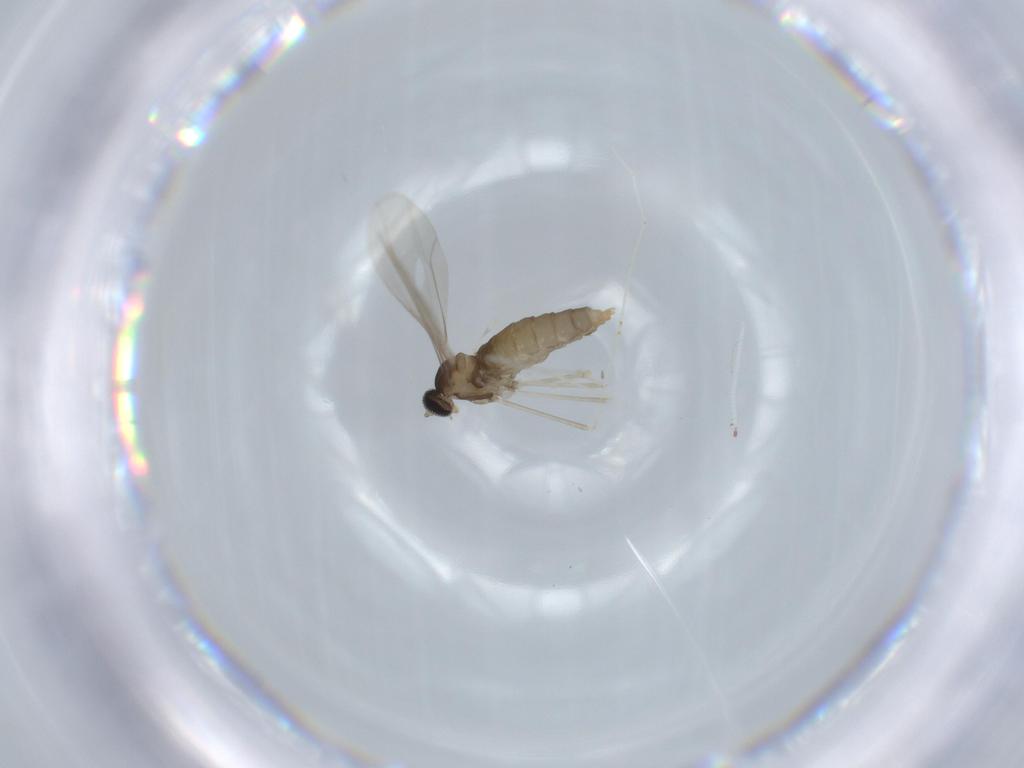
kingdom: Animalia
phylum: Arthropoda
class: Insecta
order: Diptera
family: Cecidomyiidae
